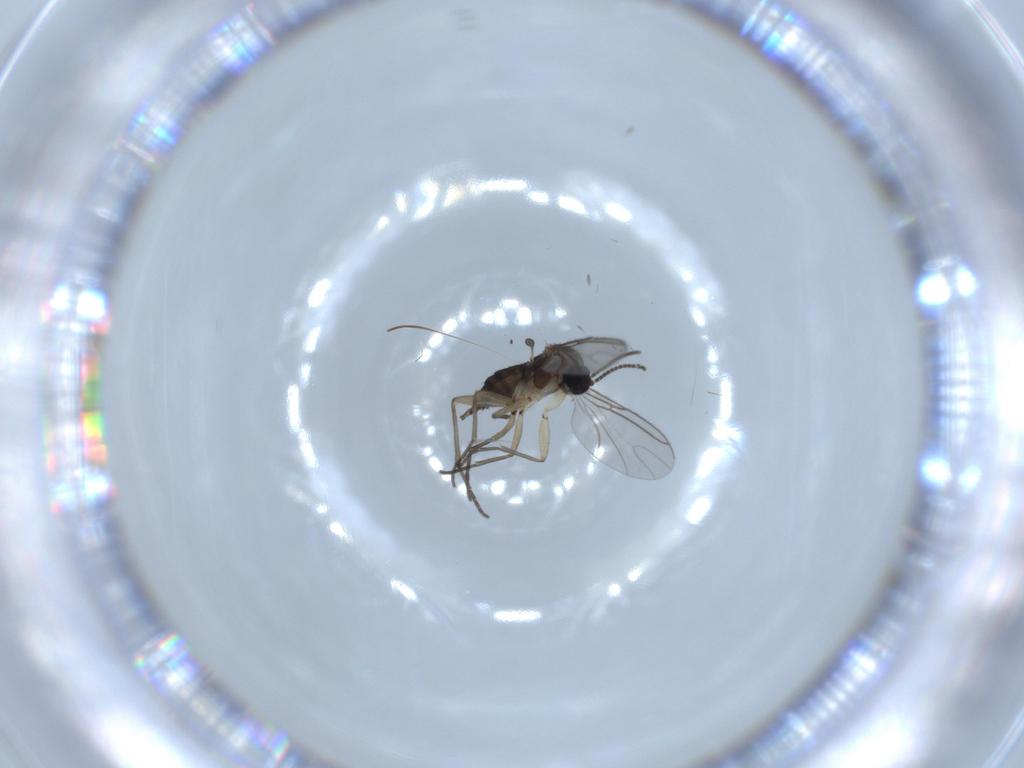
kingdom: Animalia
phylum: Arthropoda
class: Insecta
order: Diptera
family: Sciaridae
